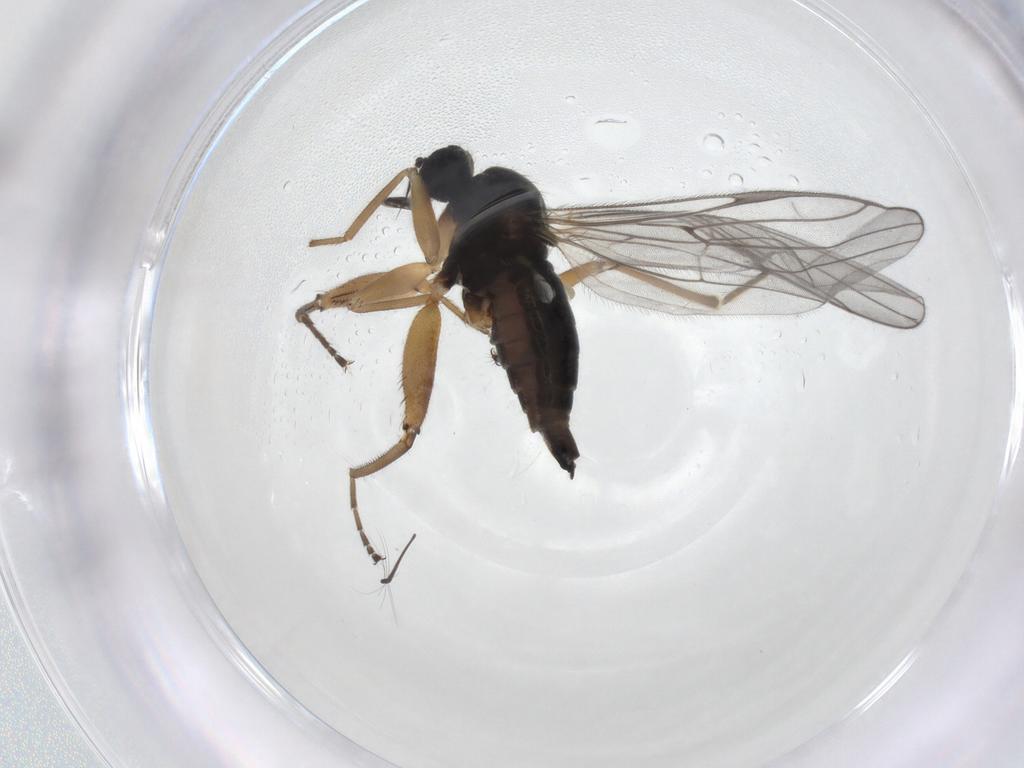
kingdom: Animalia
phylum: Arthropoda
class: Insecta
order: Diptera
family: Hybotidae
